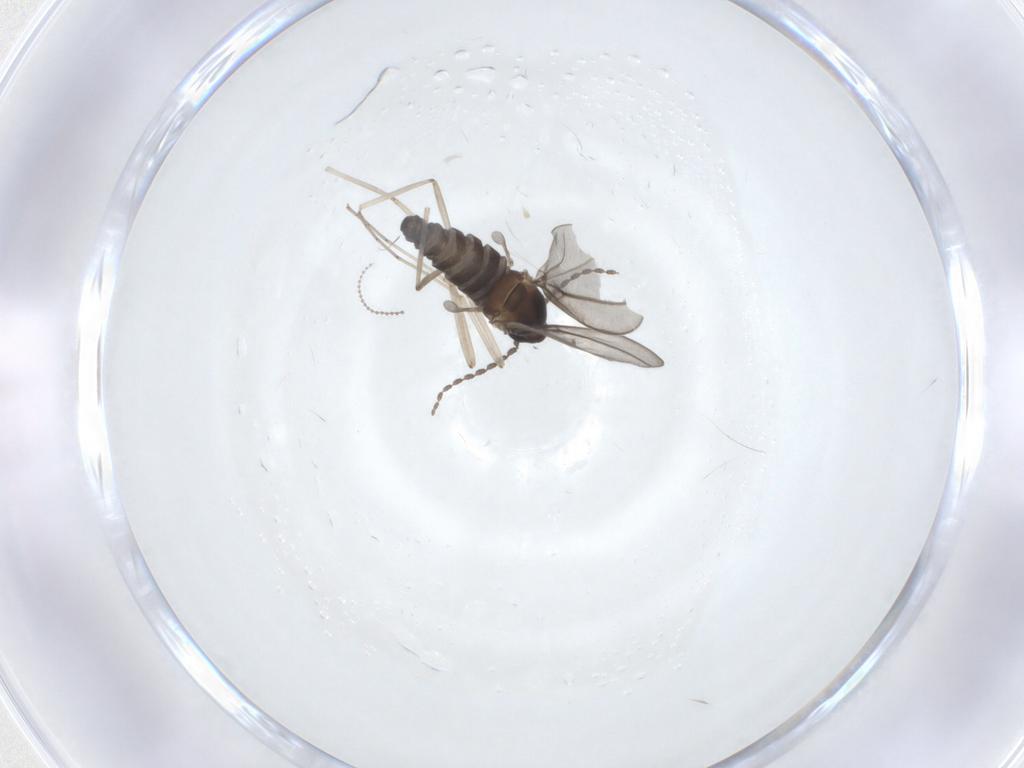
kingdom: Animalia
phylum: Arthropoda
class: Insecta
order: Diptera
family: Cecidomyiidae
